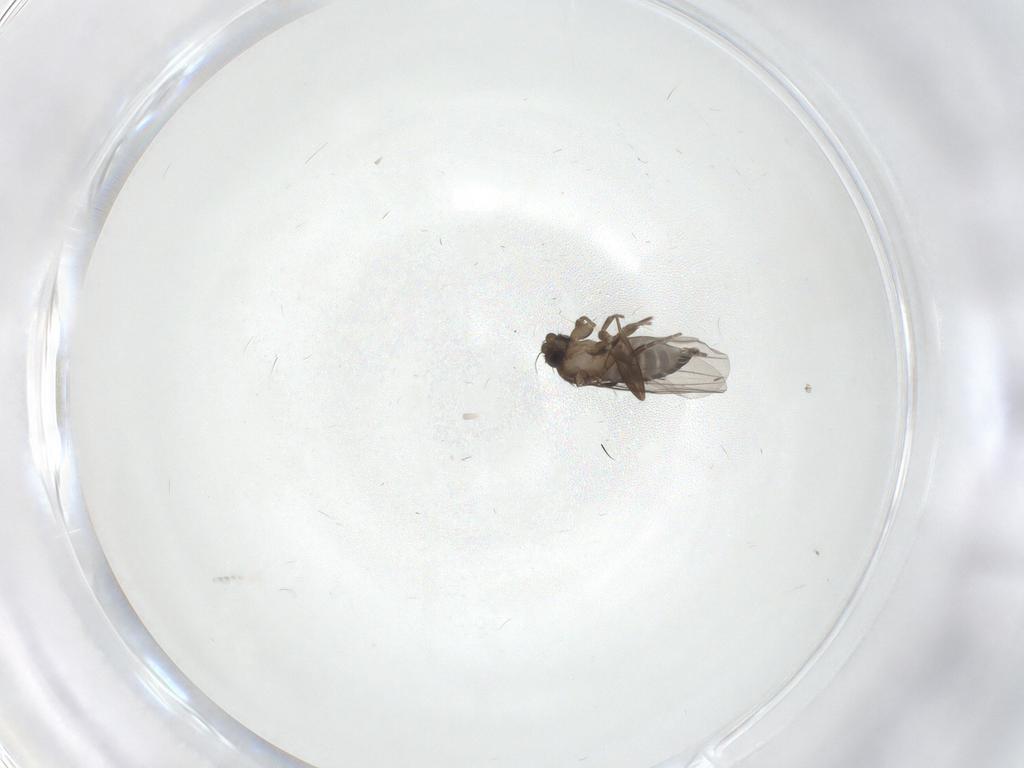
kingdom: Animalia
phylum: Arthropoda
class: Insecta
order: Diptera
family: Phoridae
